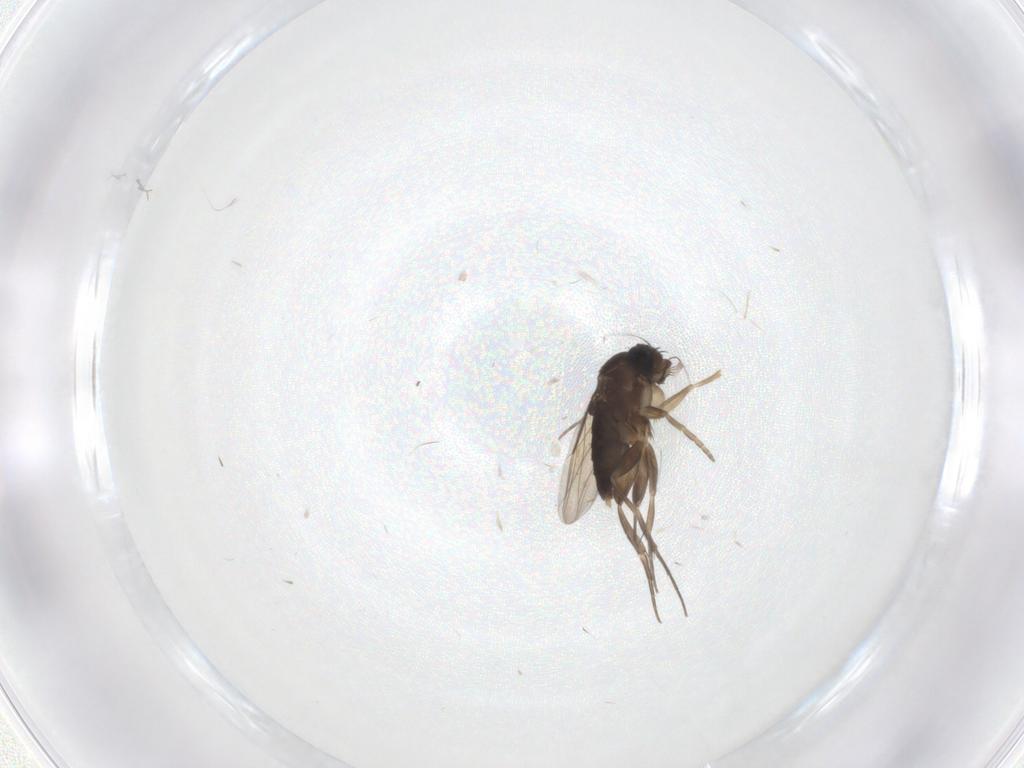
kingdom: Animalia
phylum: Arthropoda
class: Insecta
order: Diptera
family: Phoridae
